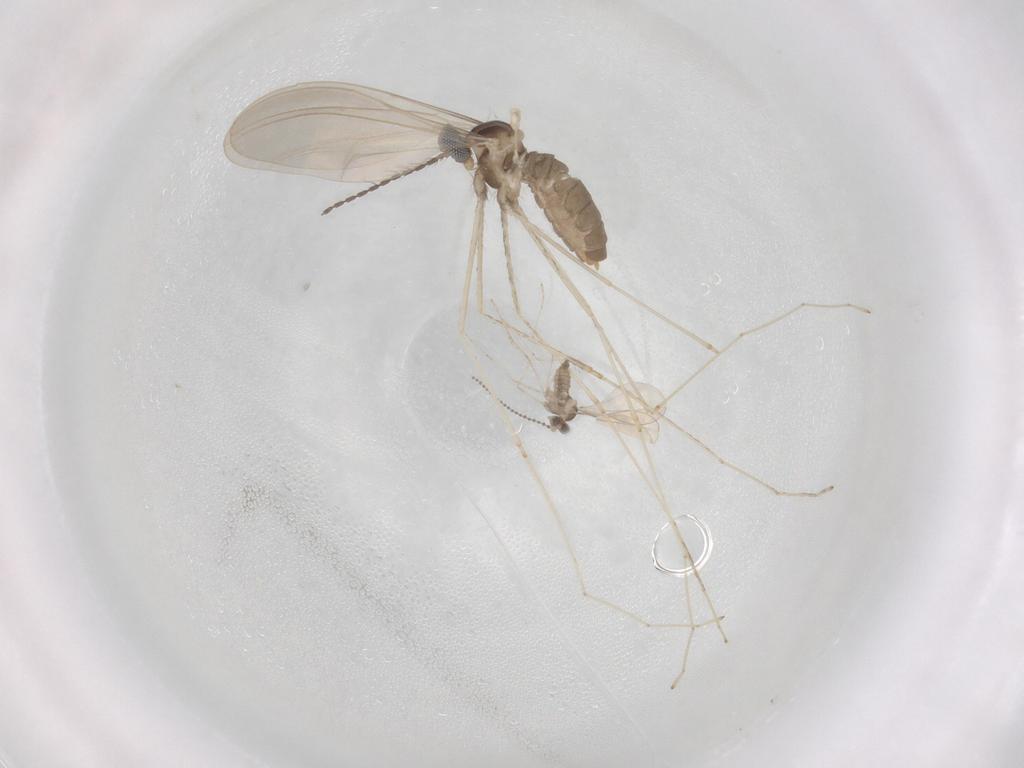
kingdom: Animalia
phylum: Arthropoda
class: Insecta
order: Diptera
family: Cecidomyiidae
